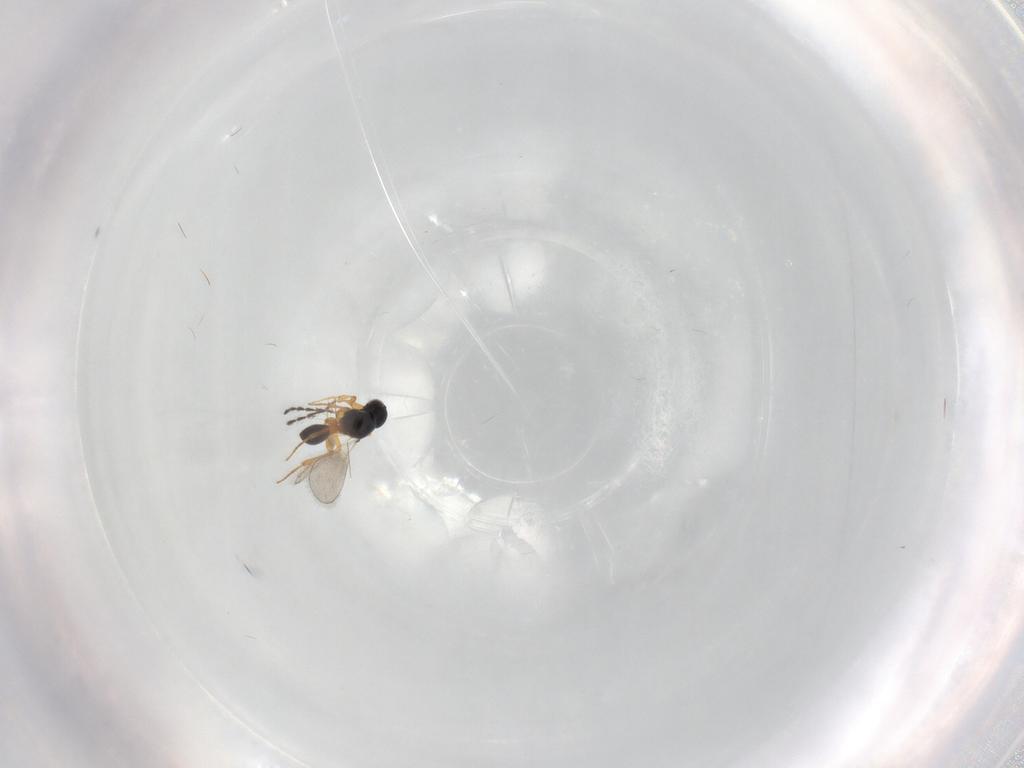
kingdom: Animalia
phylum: Arthropoda
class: Insecta
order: Hymenoptera
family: Platygastridae
